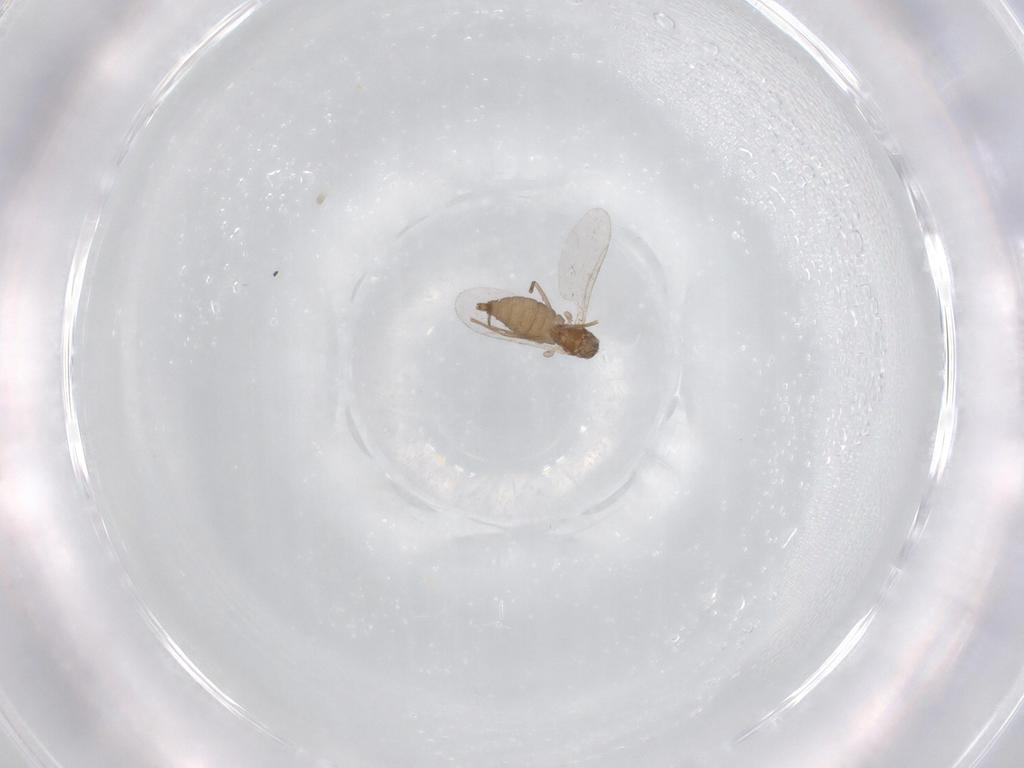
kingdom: Animalia
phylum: Arthropoda
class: Insecta
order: Diptera
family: Cecidomyiidae
